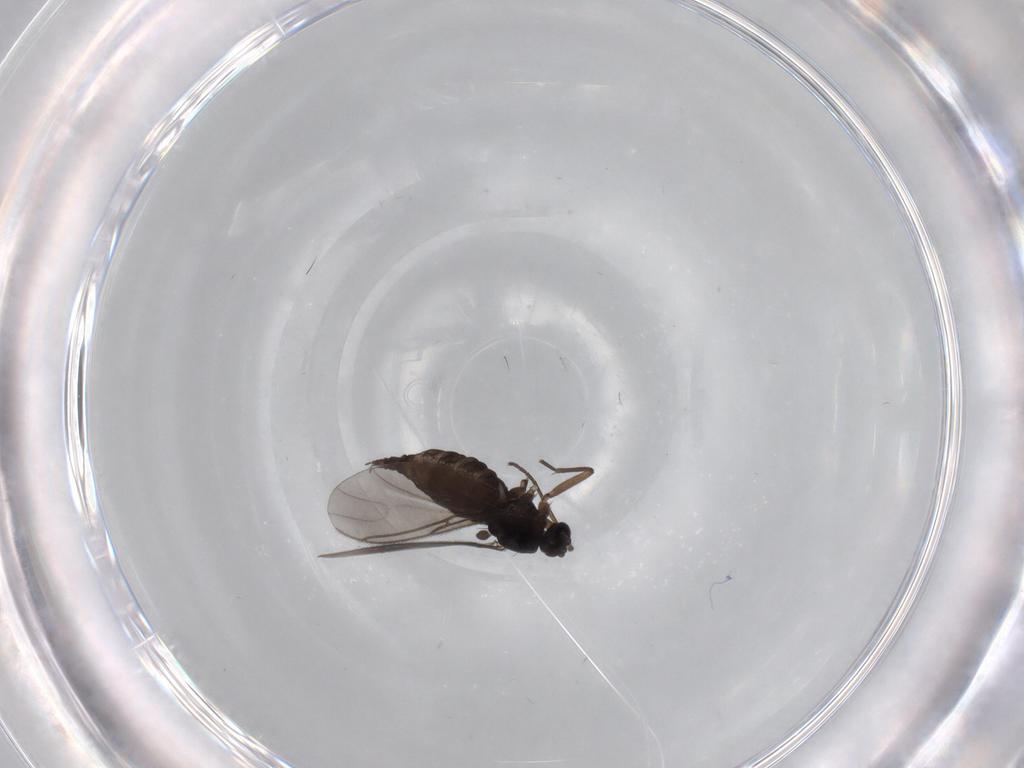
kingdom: Animalia
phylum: Arthropoda
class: Insecta
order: Diptera
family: Sciaridae
